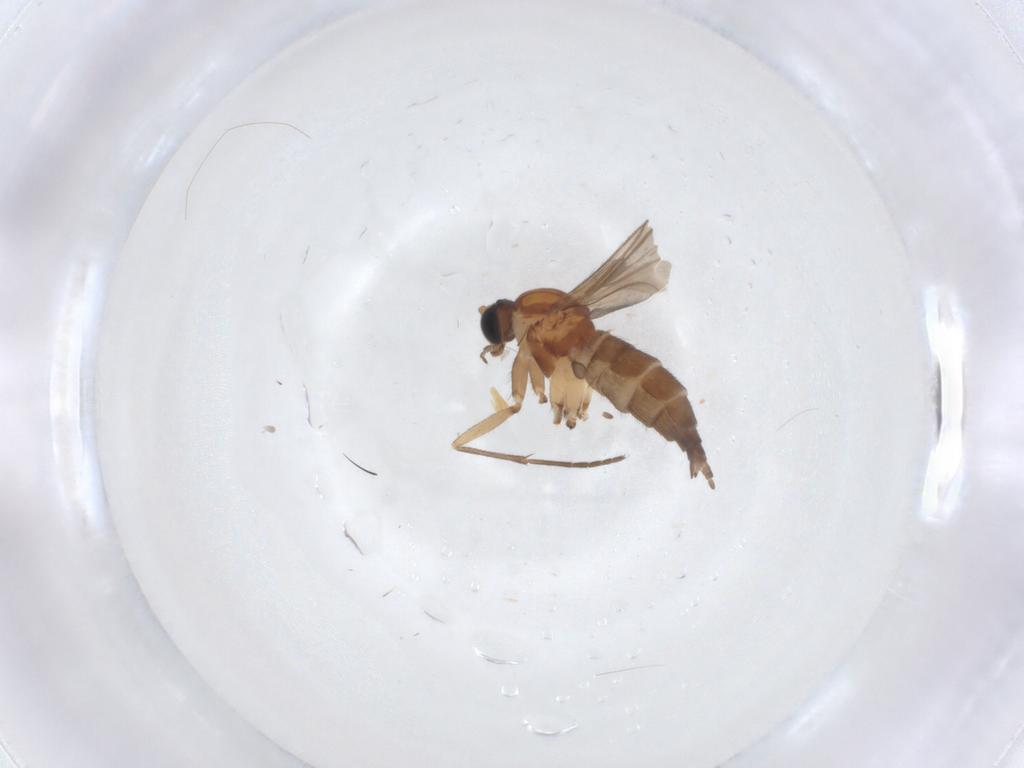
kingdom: Animalia
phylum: Arthropoda
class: Insecta
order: Diptera
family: Sciaridae
